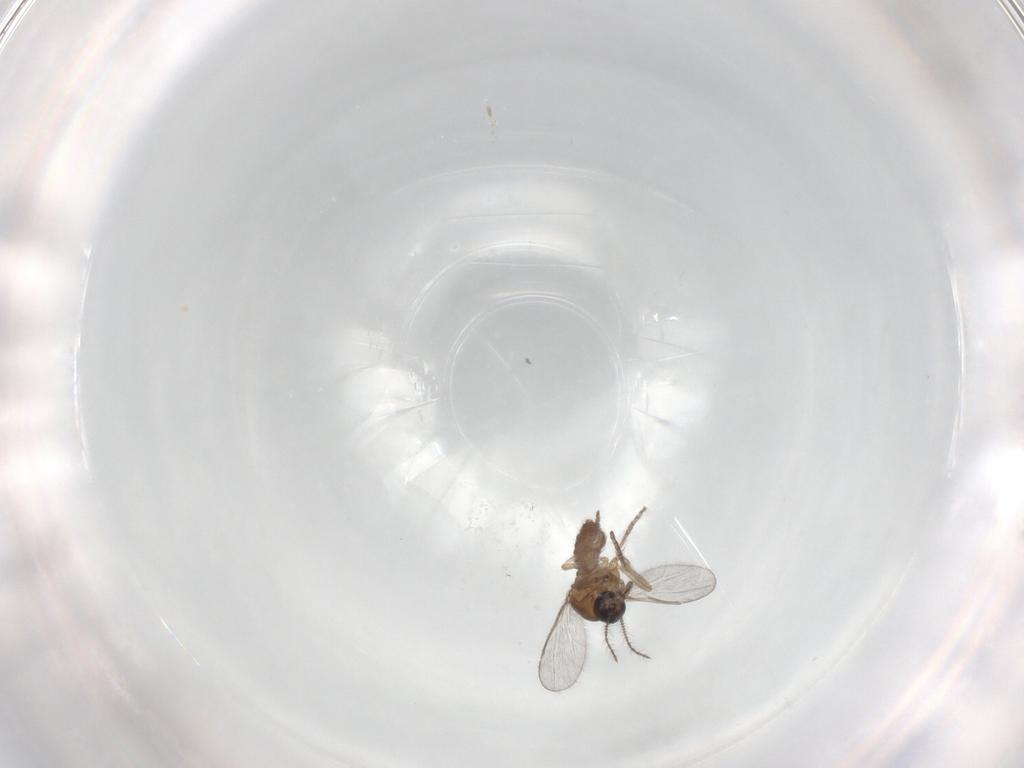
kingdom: Animalia
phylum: Arthropoda
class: Insecta
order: Diptera
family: Ceratopogonidae
